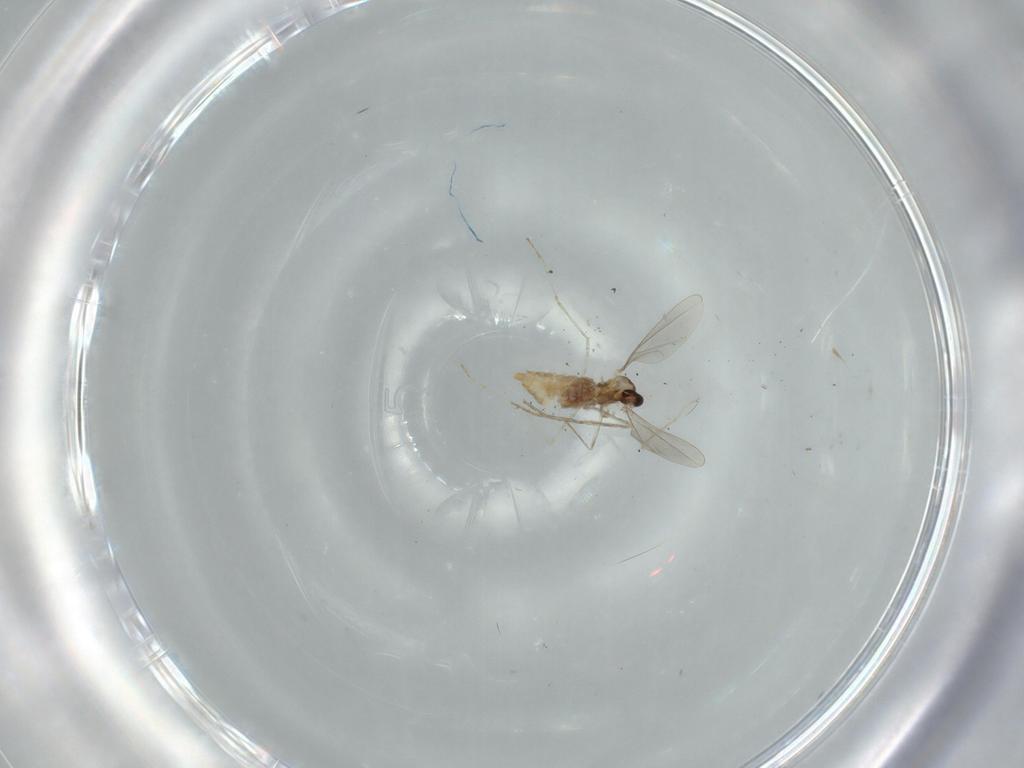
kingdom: Animalia
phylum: Arthropoda
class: Insecta
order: Diptera
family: Cecidomyiidae
